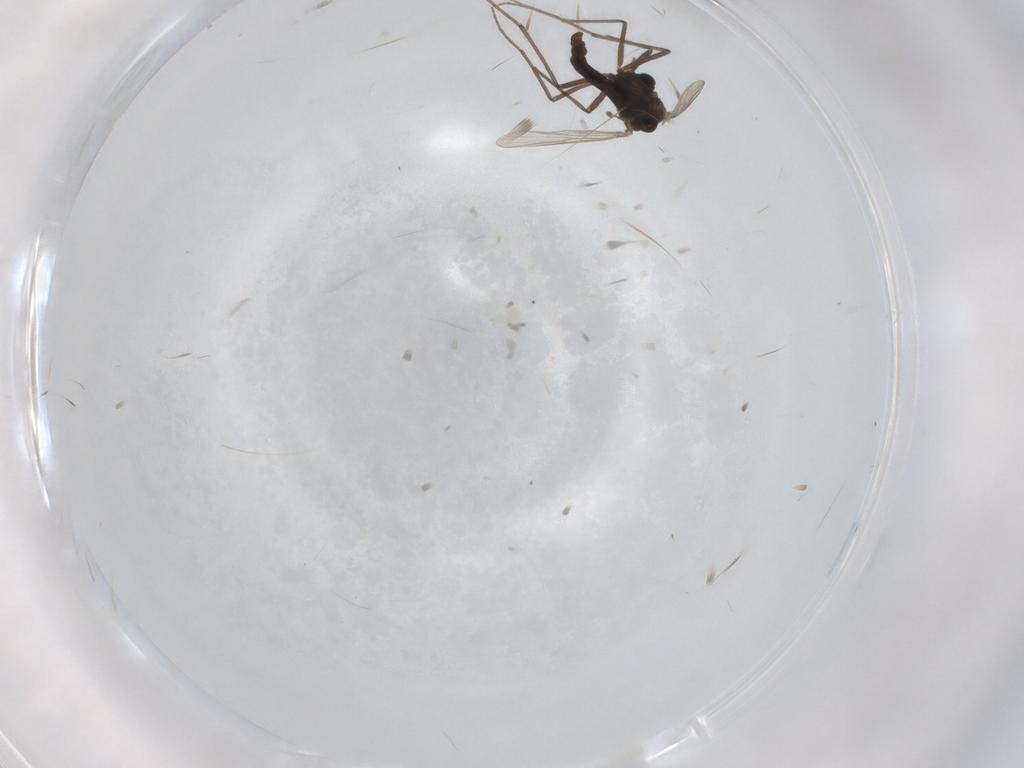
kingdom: Animalia
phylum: Arthropoda
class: Insecta
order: Diptera
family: Chironomidae
